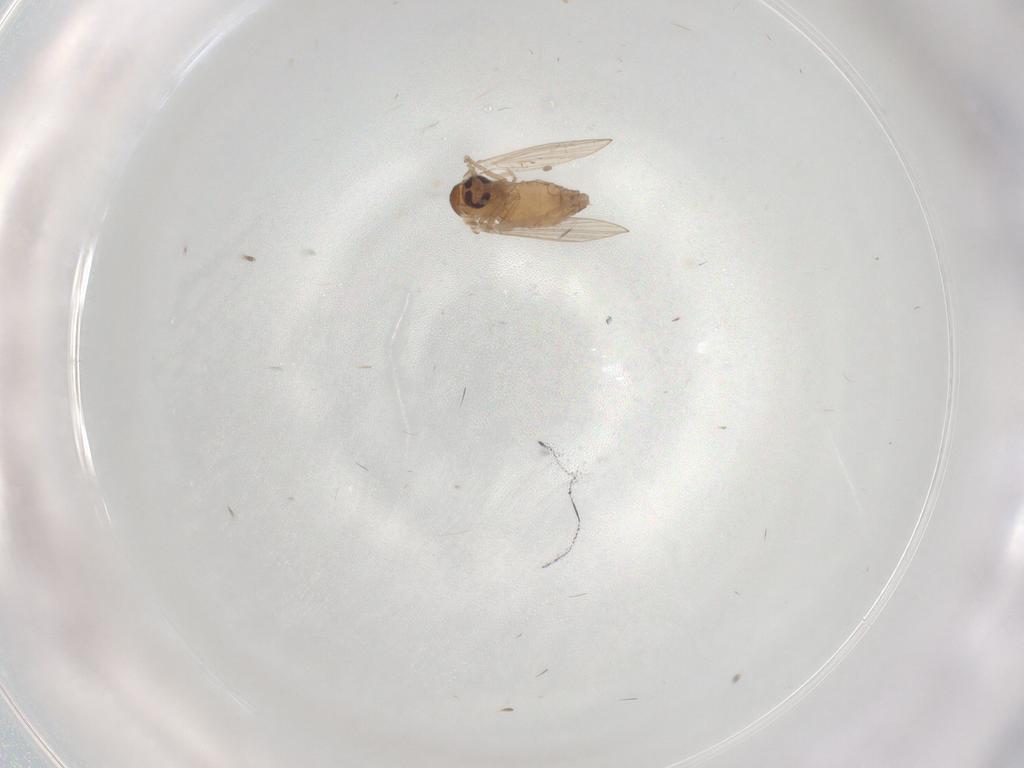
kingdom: Animalia
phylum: Arthropoda
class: Insecta
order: Diptera
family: Psychodidae
